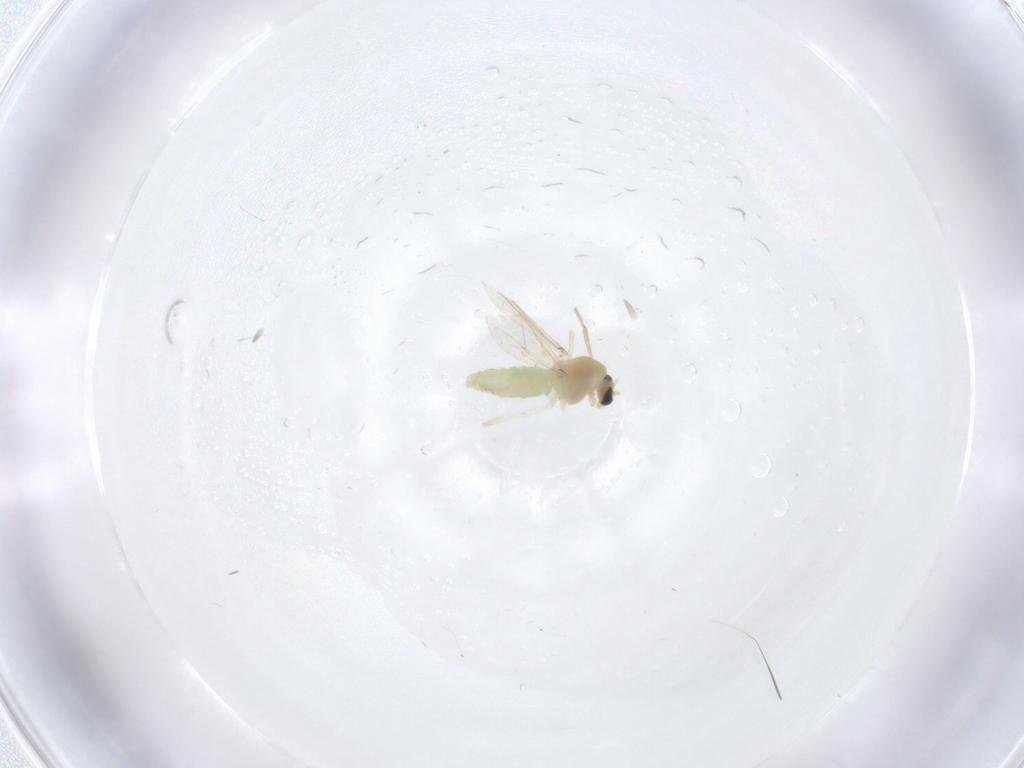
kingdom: Animalia
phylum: Arthropoda
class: Insecta
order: Diptera
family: Chironomidae
